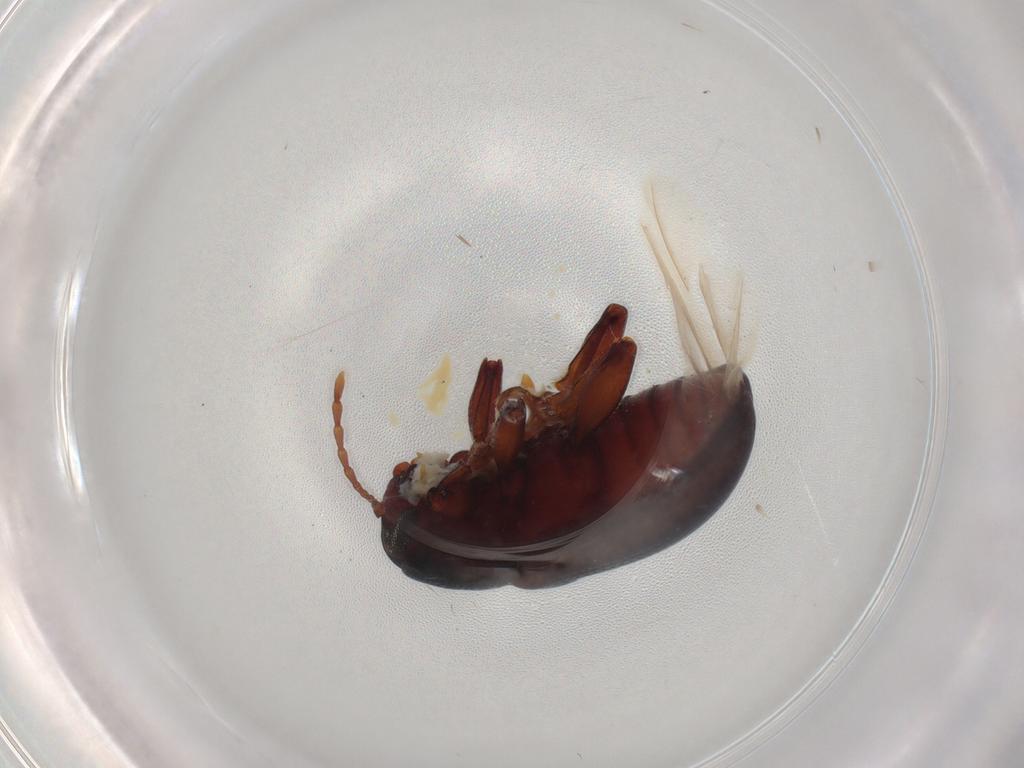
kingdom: Animalia
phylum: Arthropoda
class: Insecta
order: Coleoptera
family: Chrysomelidae
